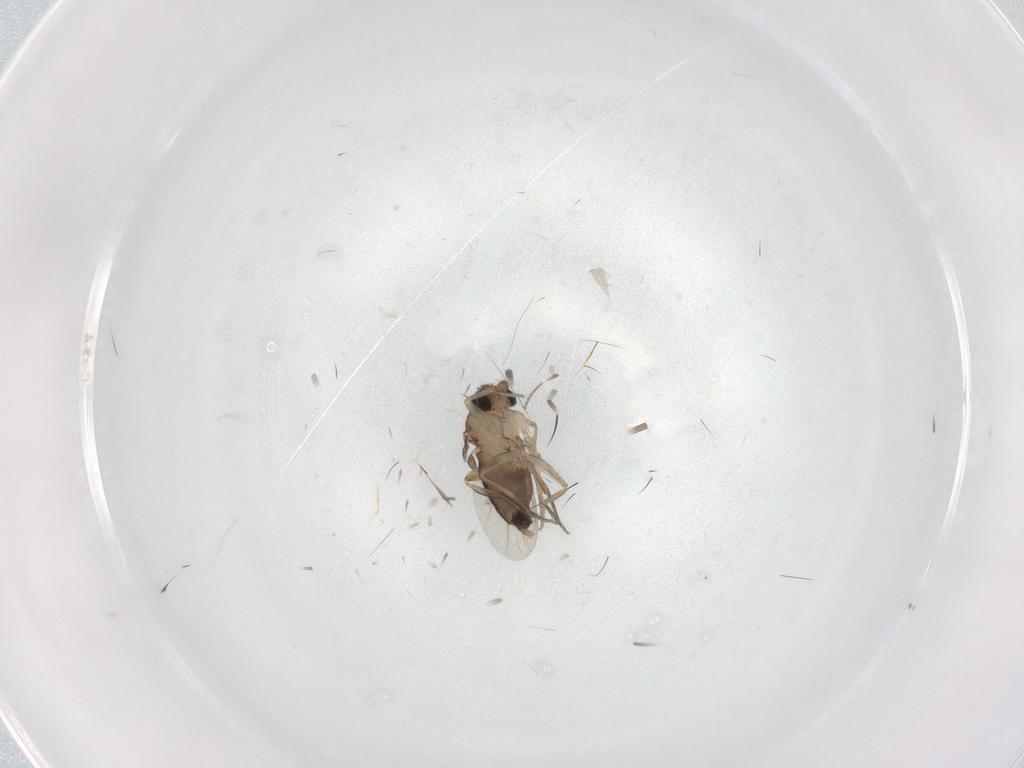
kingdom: Animalia
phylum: Arthropoda
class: Insecta
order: Diptera
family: Phoridae
